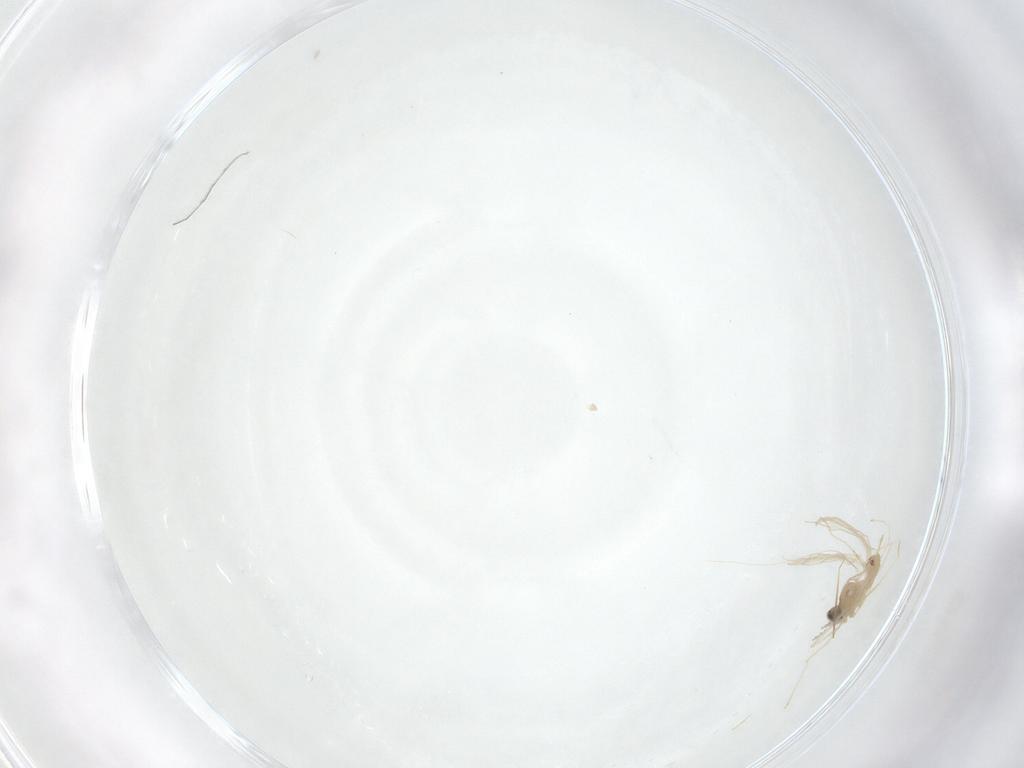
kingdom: Animalia
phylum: Arthropoda
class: Insecta
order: Diptera
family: Cecidomyiidae
